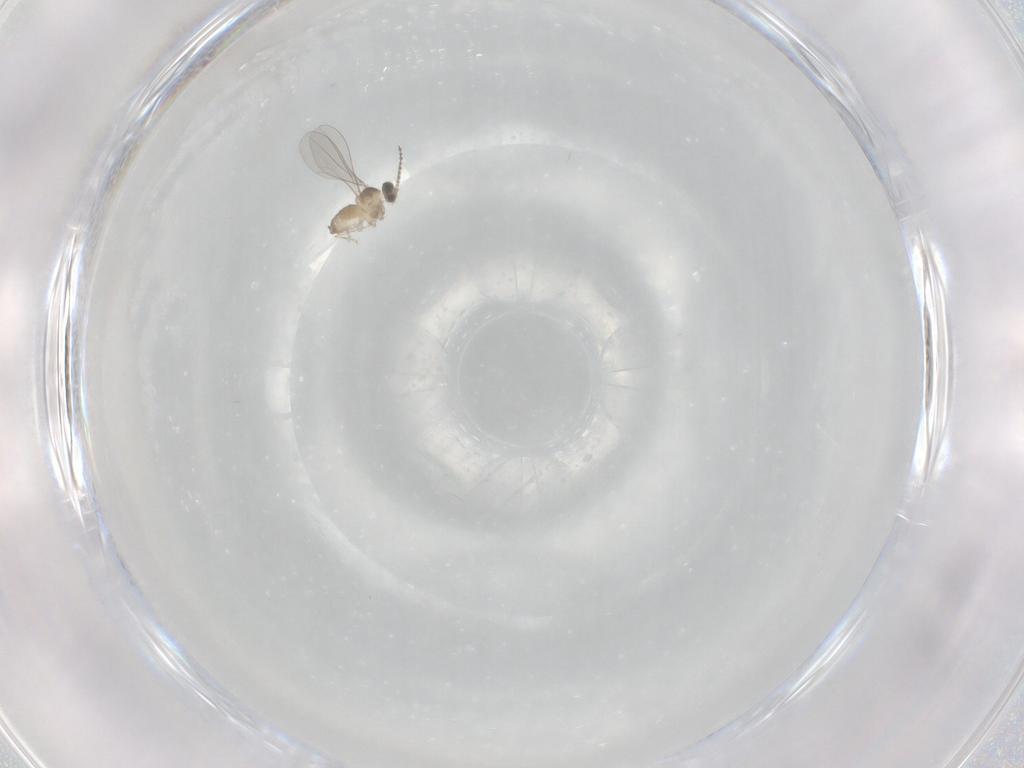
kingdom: Animalia
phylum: Arthropoda
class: Insecta
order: Diptera
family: Cecidomyiidae
